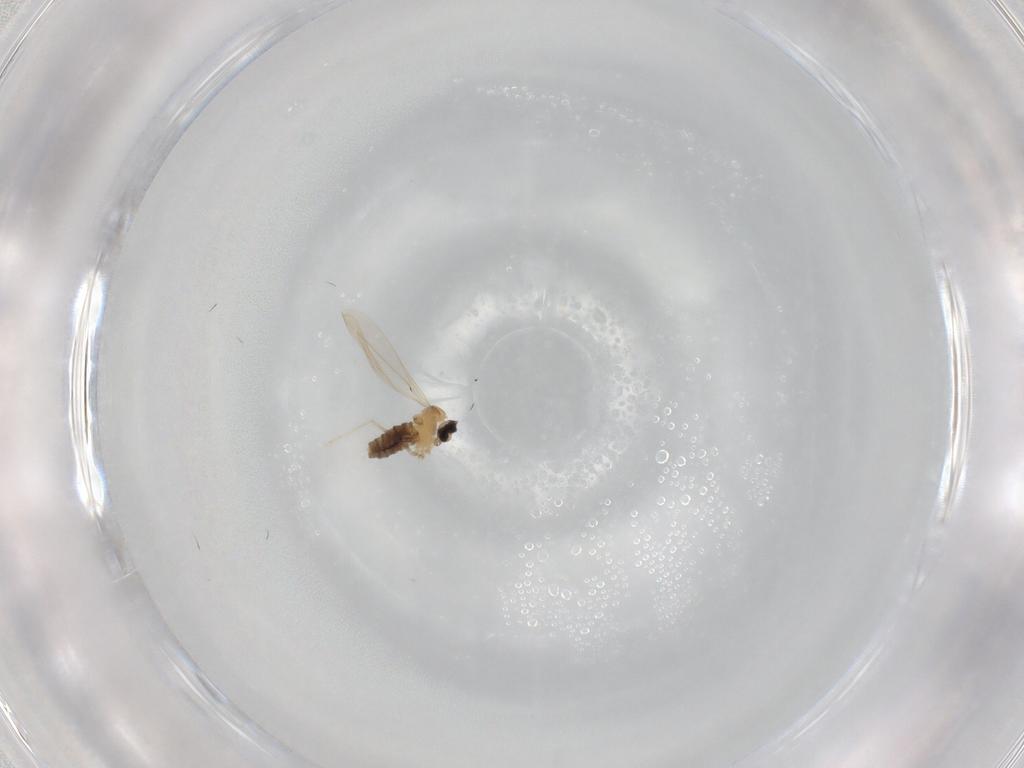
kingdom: Animalia
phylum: Arthropoda
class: Insecta
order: Diptera
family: Cecidomyiidae
